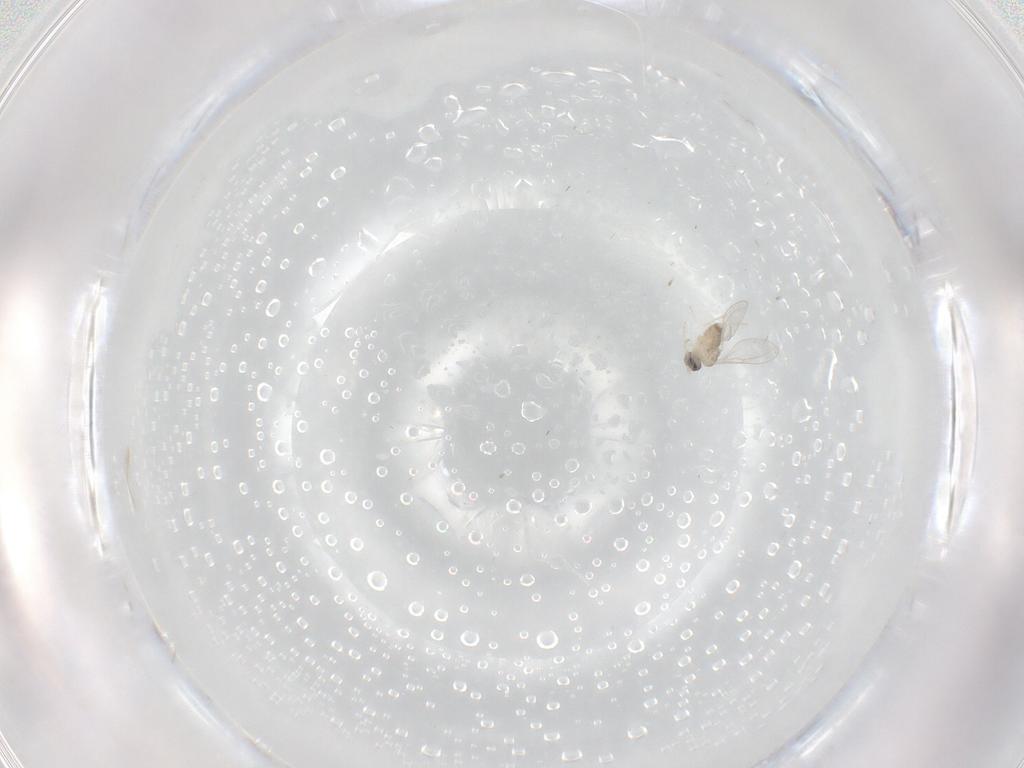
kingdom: Animalia
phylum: Arthropoda
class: Insecta
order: Diptera
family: Cecidomyiidae
